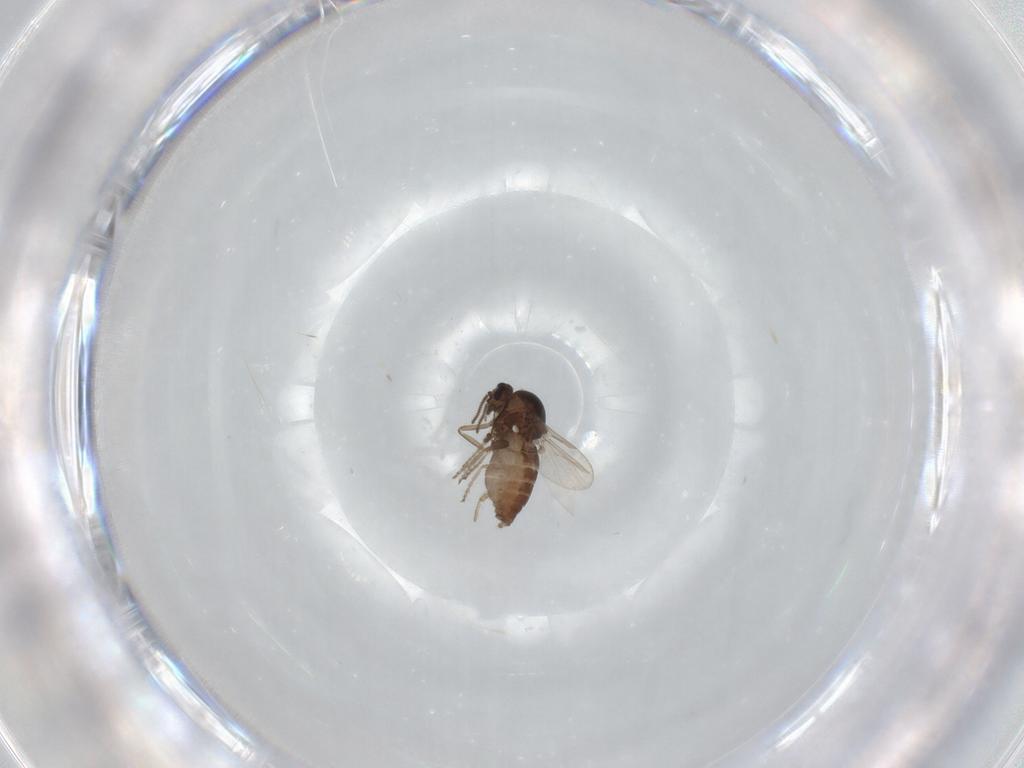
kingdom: Animalia
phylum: Arthropoda
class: Insecta
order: Diptera
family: Ceratopogonidae
